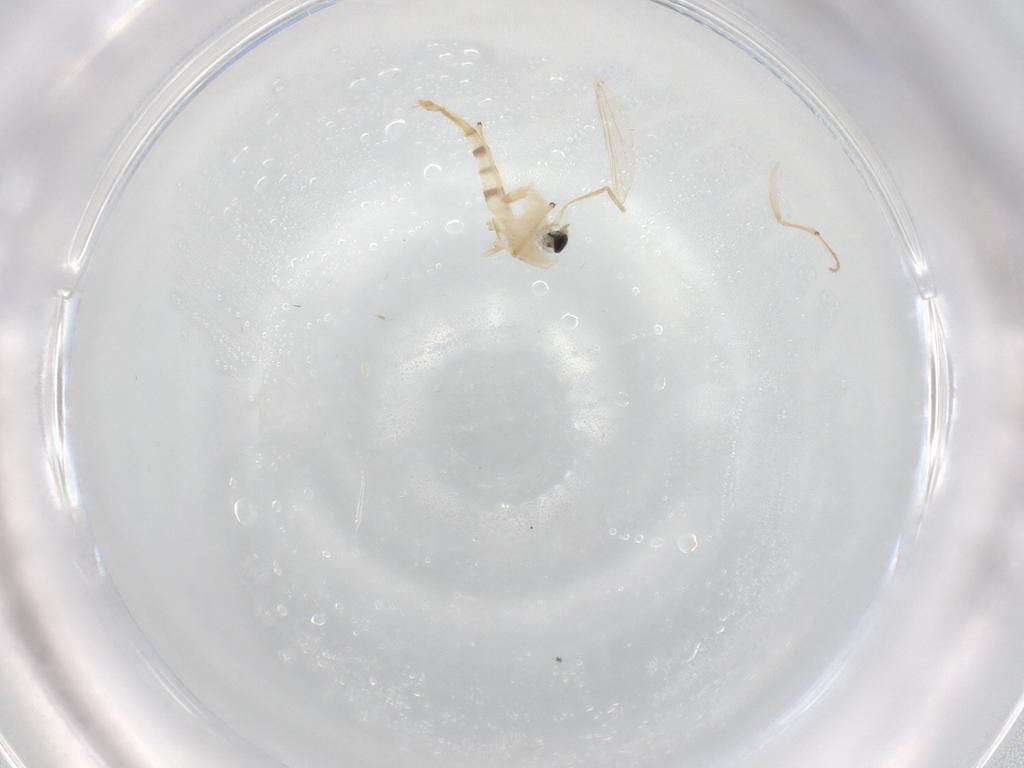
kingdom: Animalia
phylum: Arthropoda
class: Insecta
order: Diptera
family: Chironomidae
